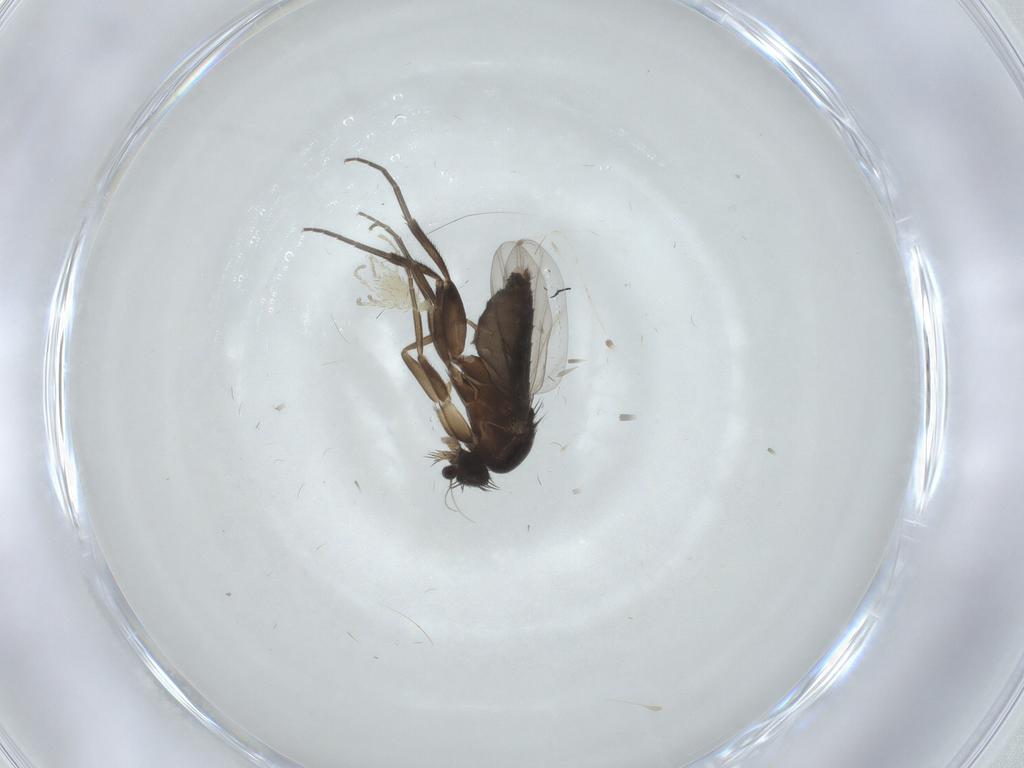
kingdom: Animalia
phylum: Arthropoda
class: Insecta
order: Diptera
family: Phoridae
